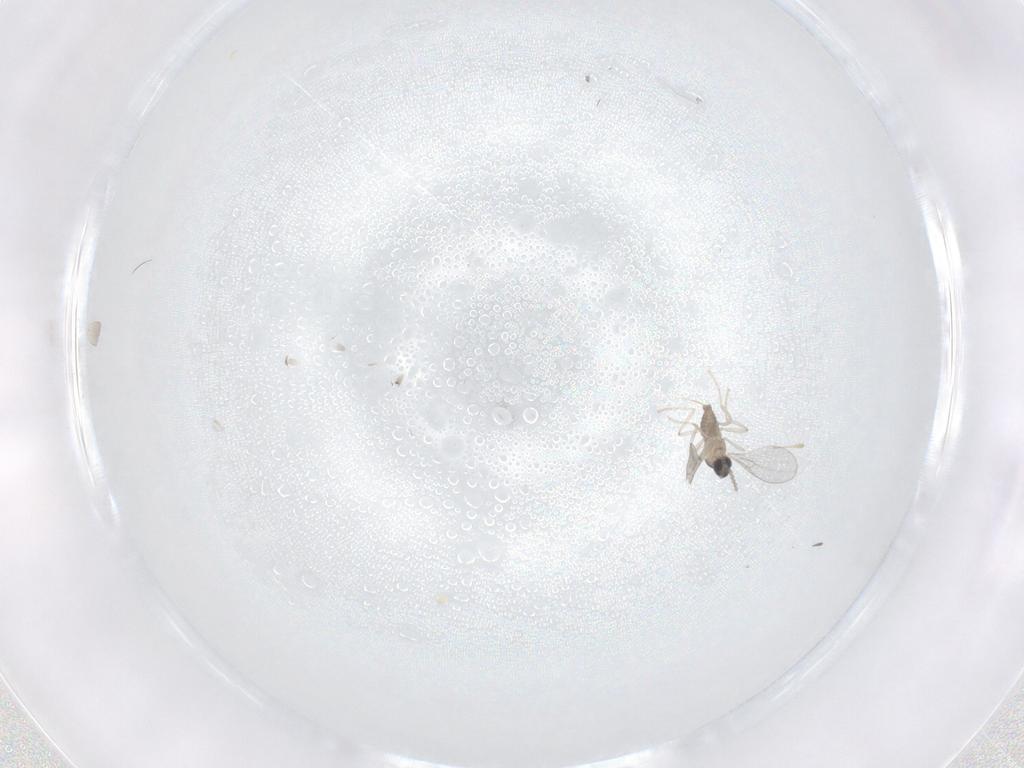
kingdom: Animalia
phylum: Arthropoda
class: Insecta
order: Diptera
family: Cecidomyiidae
